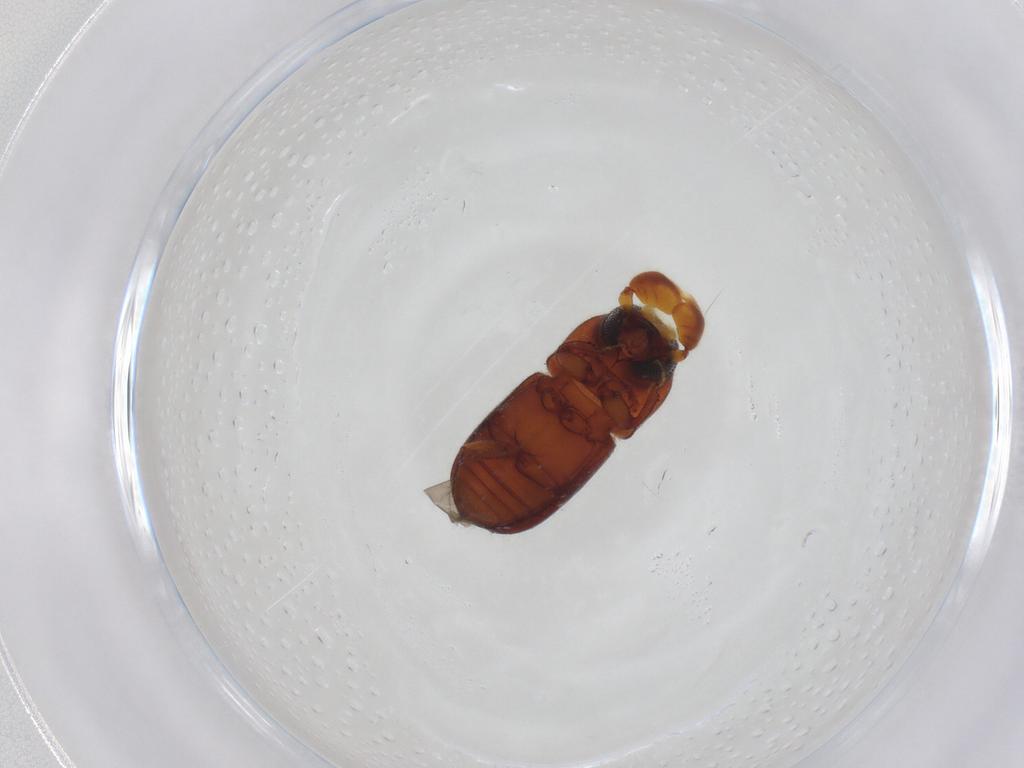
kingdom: Animalia
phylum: Arthropoda
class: Insecta
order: Coleoptera
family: Curculionidae
